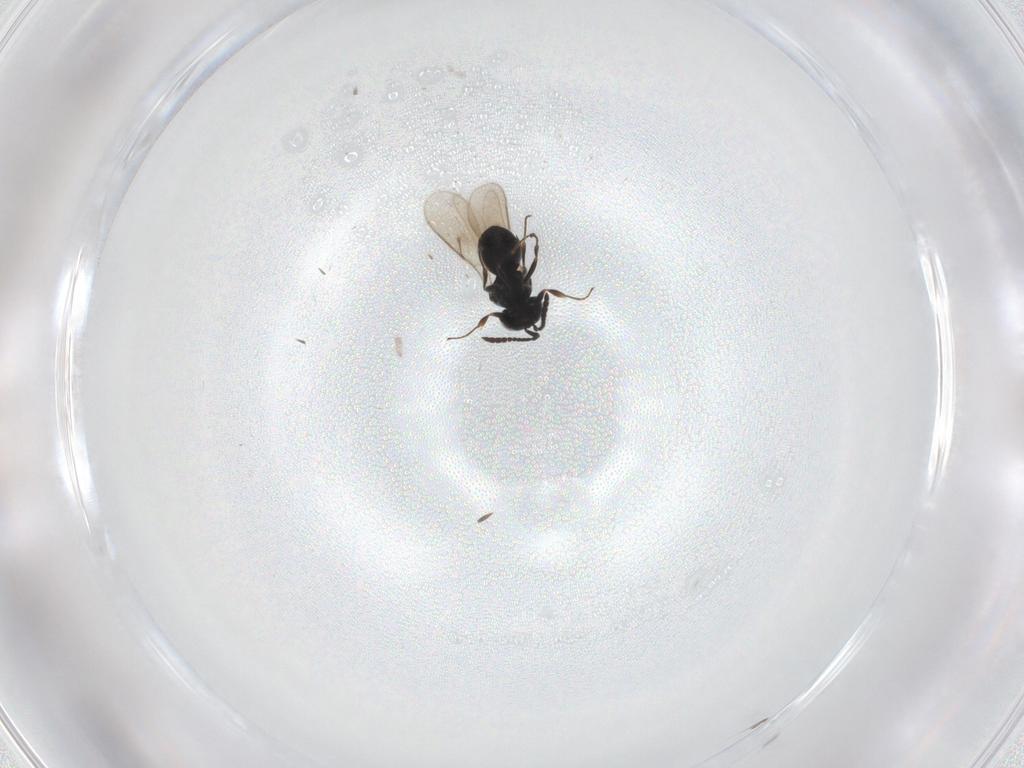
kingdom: Animalia
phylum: Arthropoda
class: Insecta
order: Hymenoptera
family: Scelionidae
